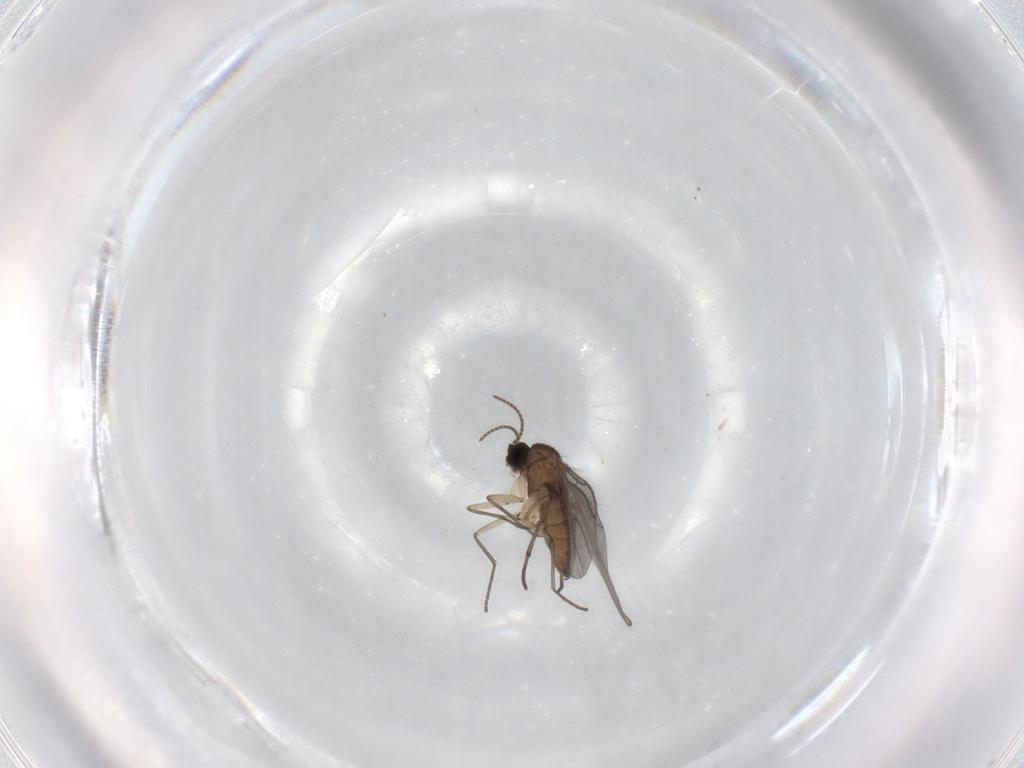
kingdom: Animalia
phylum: Arthropoda
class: Insecta
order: Diptera
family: Sciaridae
